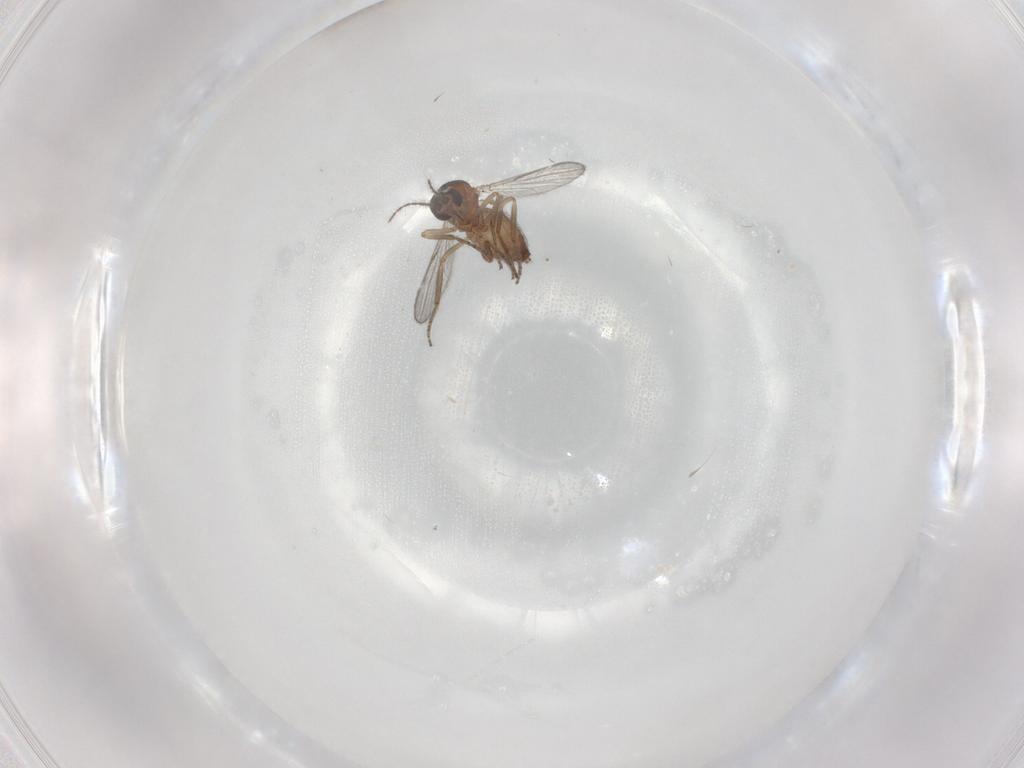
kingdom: Animalia
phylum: Arthropoda
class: Insecta
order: Diptera
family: Ceratopogonidae
